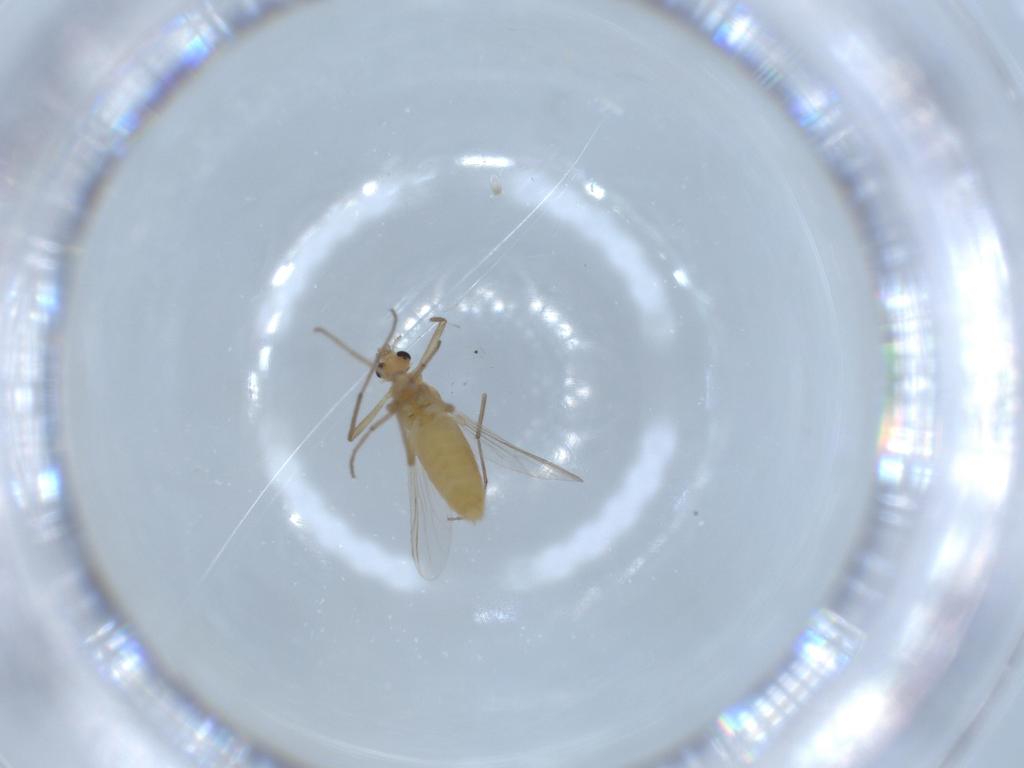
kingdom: Animalia
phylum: Arthropoda
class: Insecta
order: Diptera
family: Chironomidae
